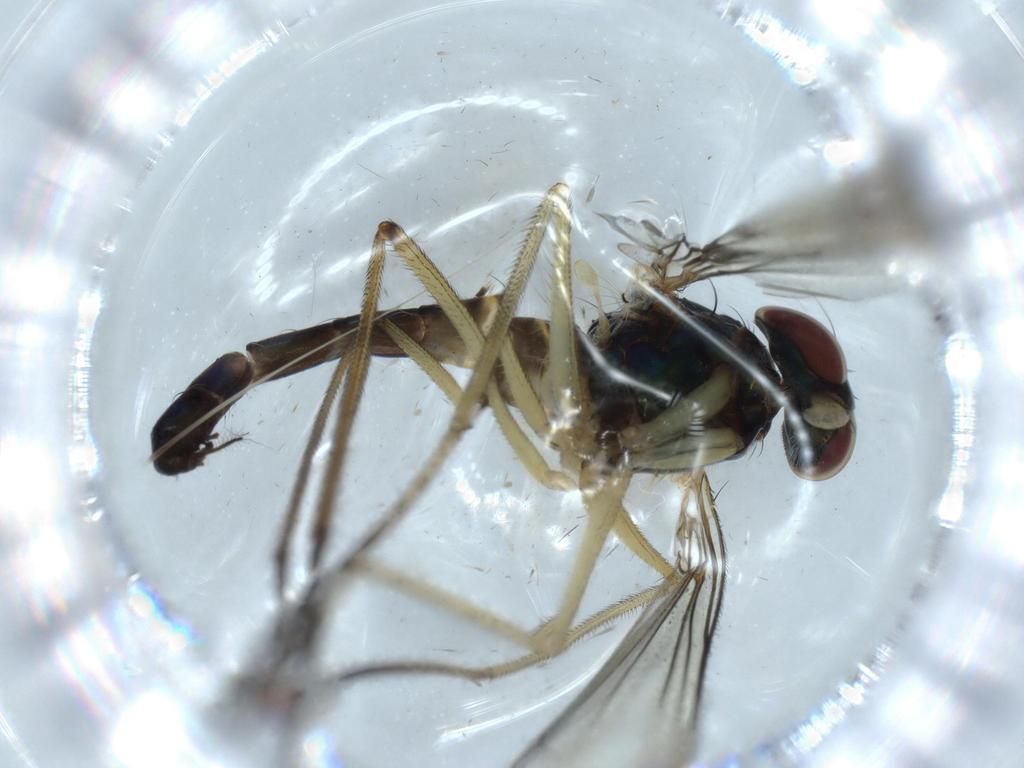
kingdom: Animalia
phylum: Arthropoda
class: Insecta
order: Diptera
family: Dolichopodidae
